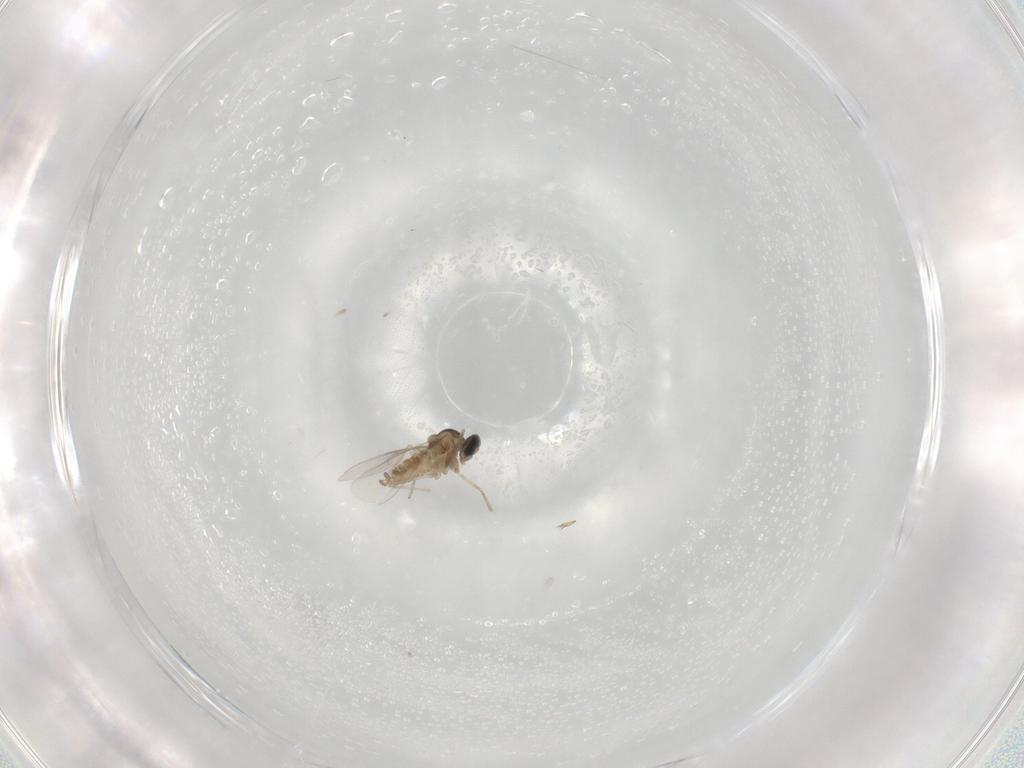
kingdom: Animalia
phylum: Arthropoda
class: Insecta
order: Diptera
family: Cecidomyiidae
